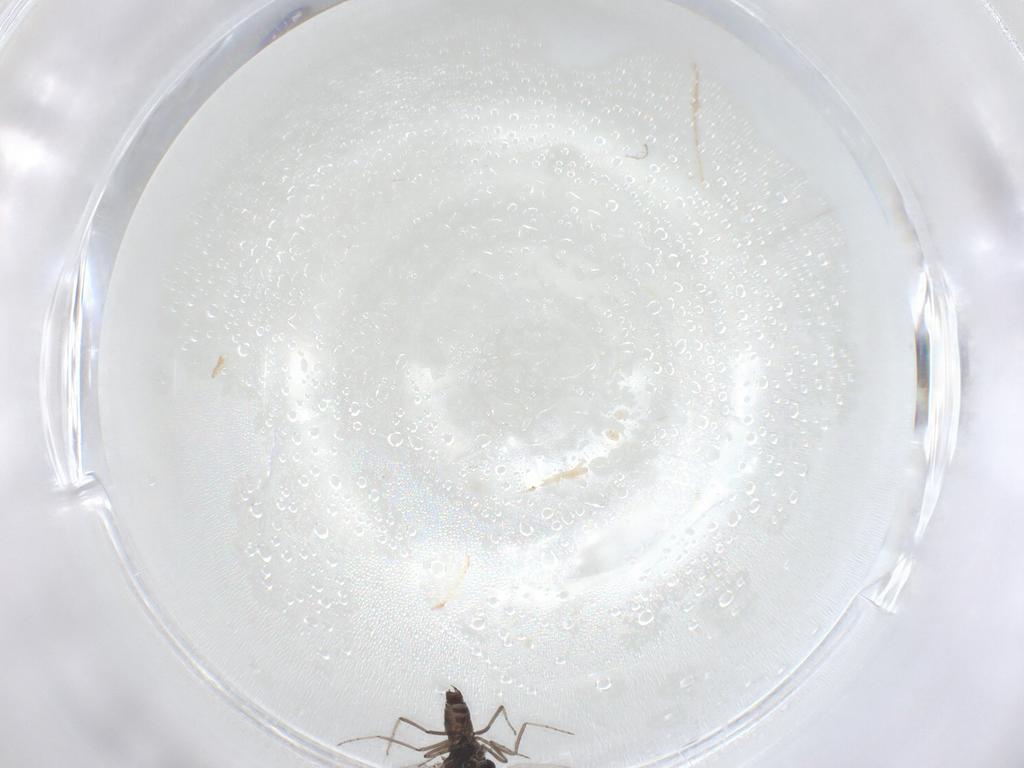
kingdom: Animalia
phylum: Arthropoda
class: Insecta
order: Diptera
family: Ceratopogonidae
